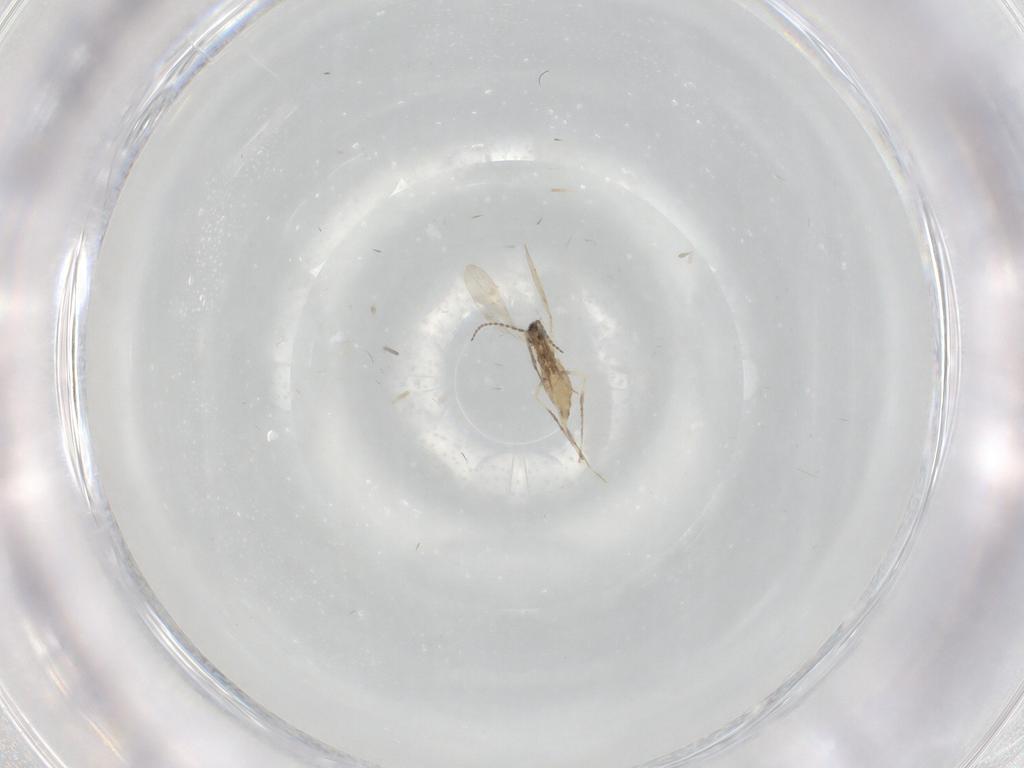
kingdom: Animalia
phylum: Arthropoda
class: Insecta
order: Diptera
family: Cecidomyiidae
